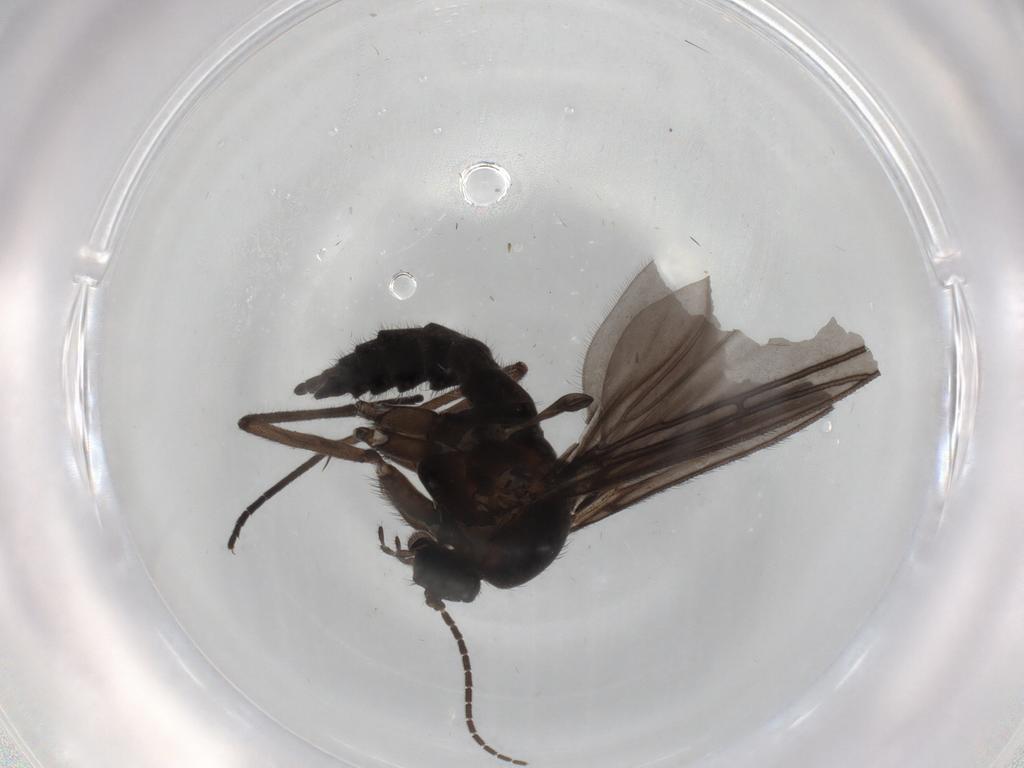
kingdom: Animalia
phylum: Arthropoda
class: Insecta
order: Diptera
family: Sciaridae
